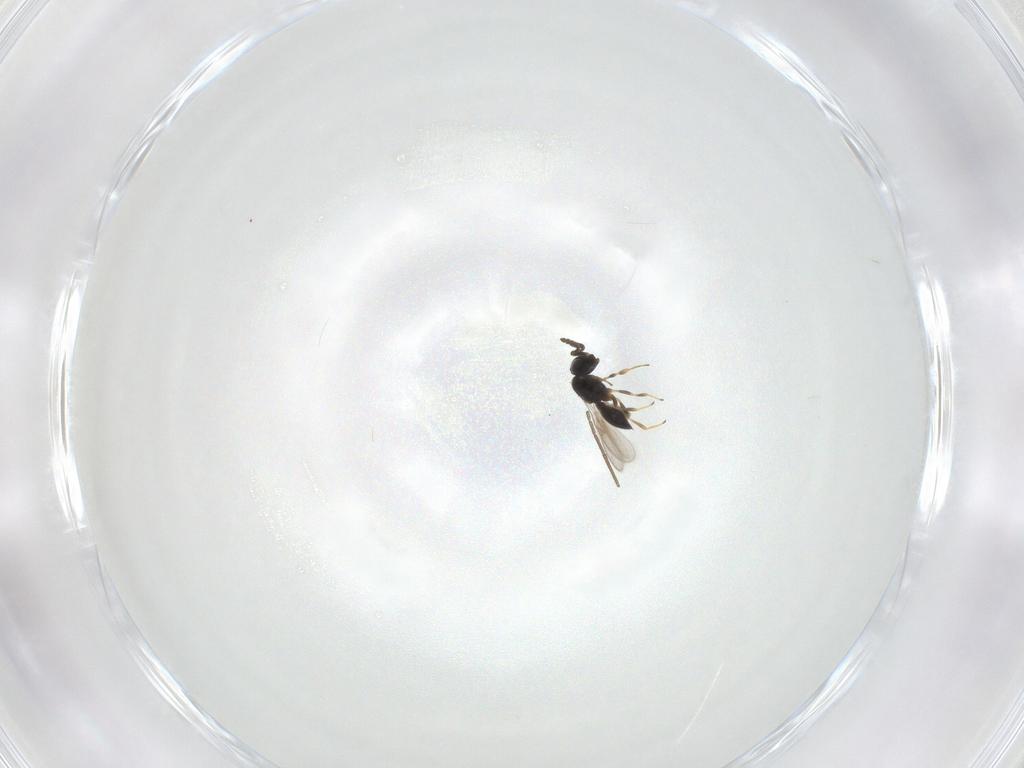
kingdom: Animalia
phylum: Arthropoda
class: Insecta
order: Hymenoptera
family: Scelionidae
